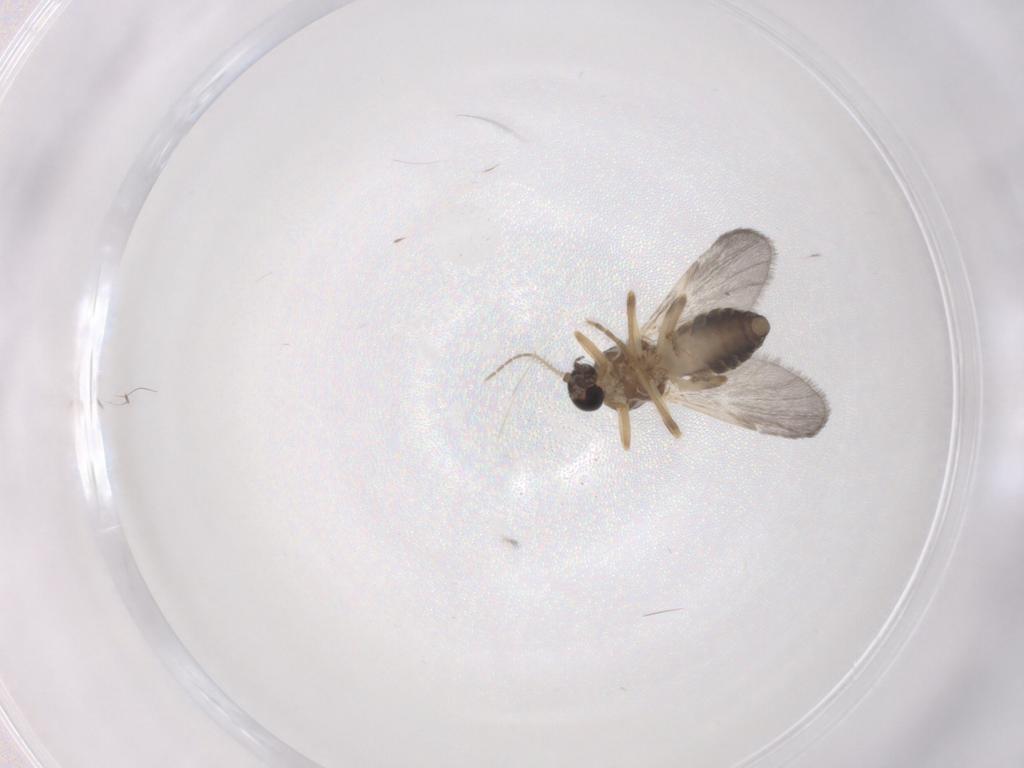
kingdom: Animalia
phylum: Arthropoda
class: Insecta
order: Diptera
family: Ceratopogonidae
